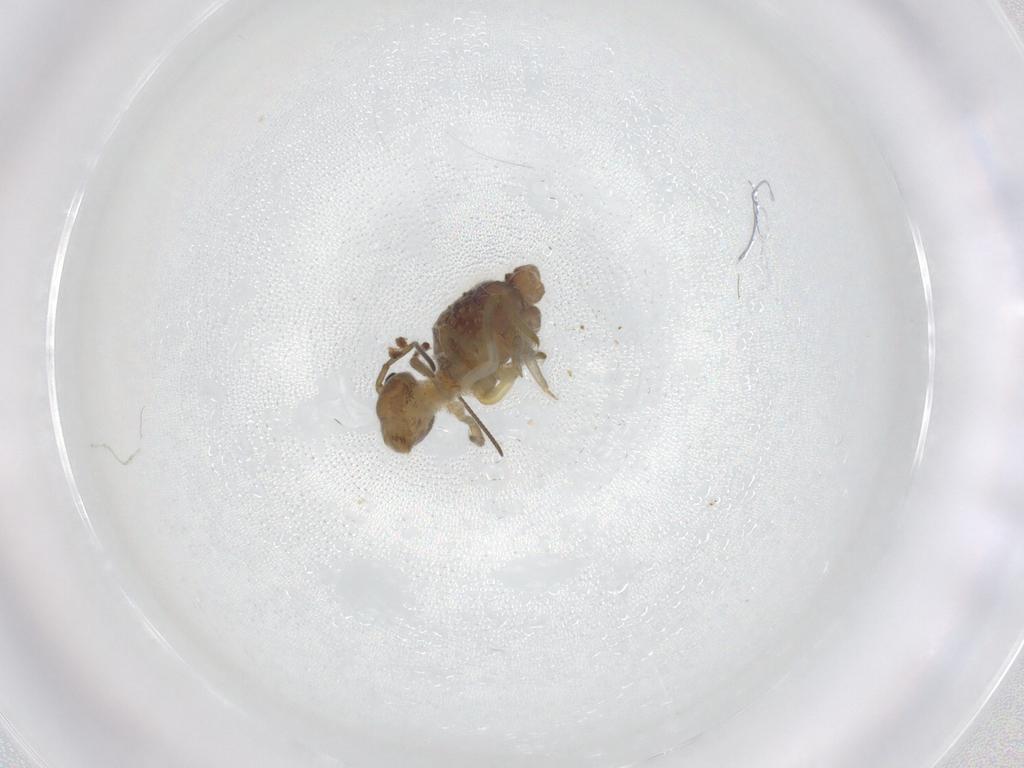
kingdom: Animalia
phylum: Arthropoda
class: Collembola
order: Symphypleona
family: Sminthuridae
